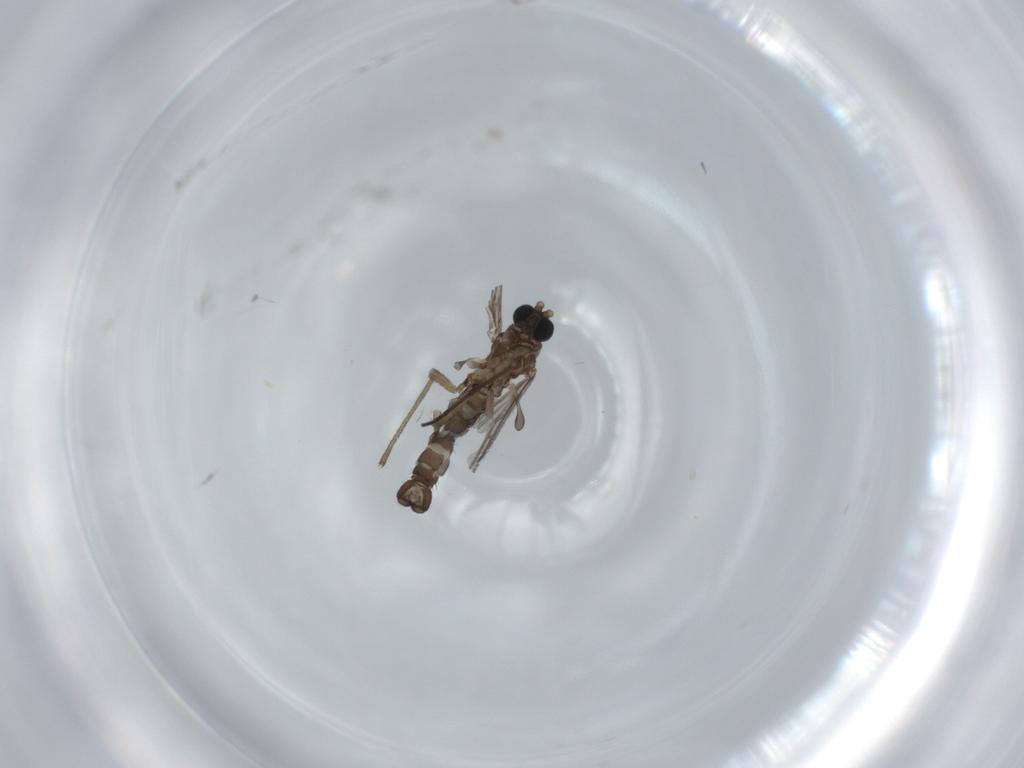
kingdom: Animalia
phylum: Arthropoda
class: Insecta
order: Diptera
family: Sciaridae
